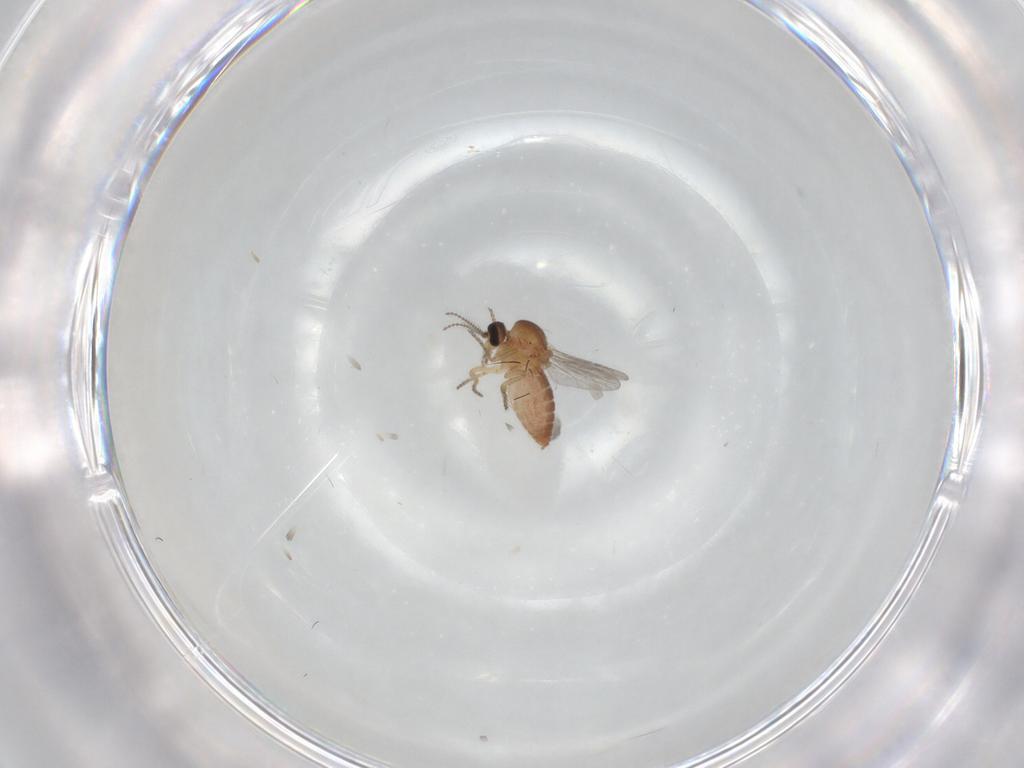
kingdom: Animalia
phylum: Arthropoda
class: Insecta
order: Diptera
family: Ceratopogonidae
